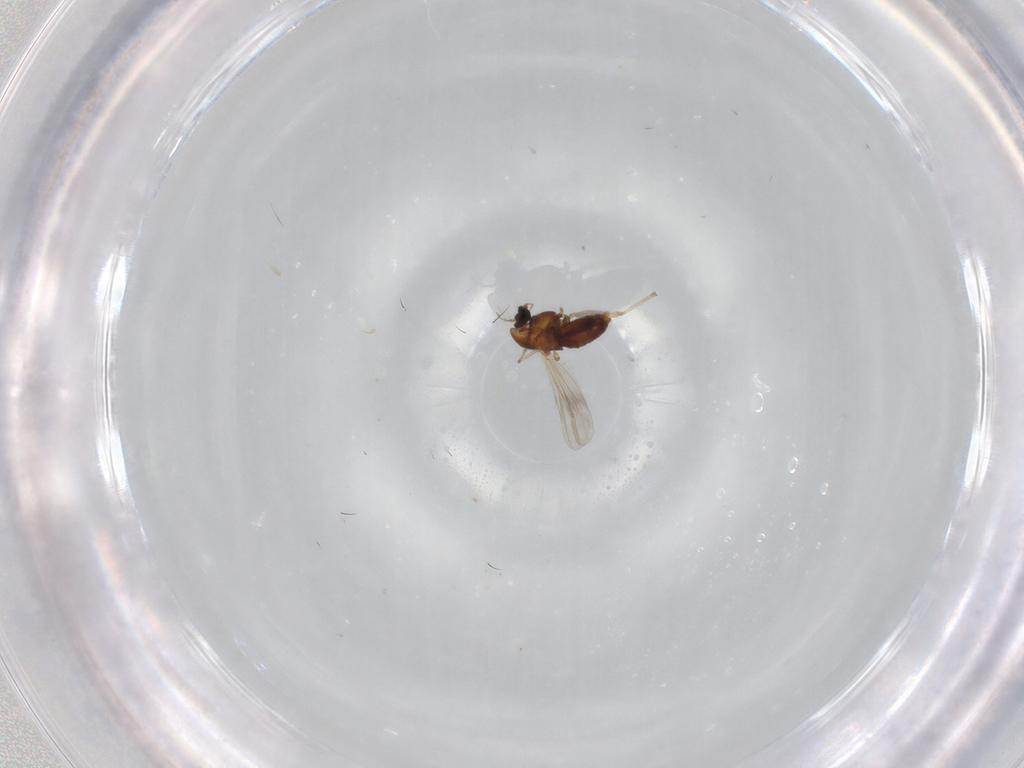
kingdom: Animalia
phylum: Arthropoda
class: Insecta
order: Diptera
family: Chironomidae
